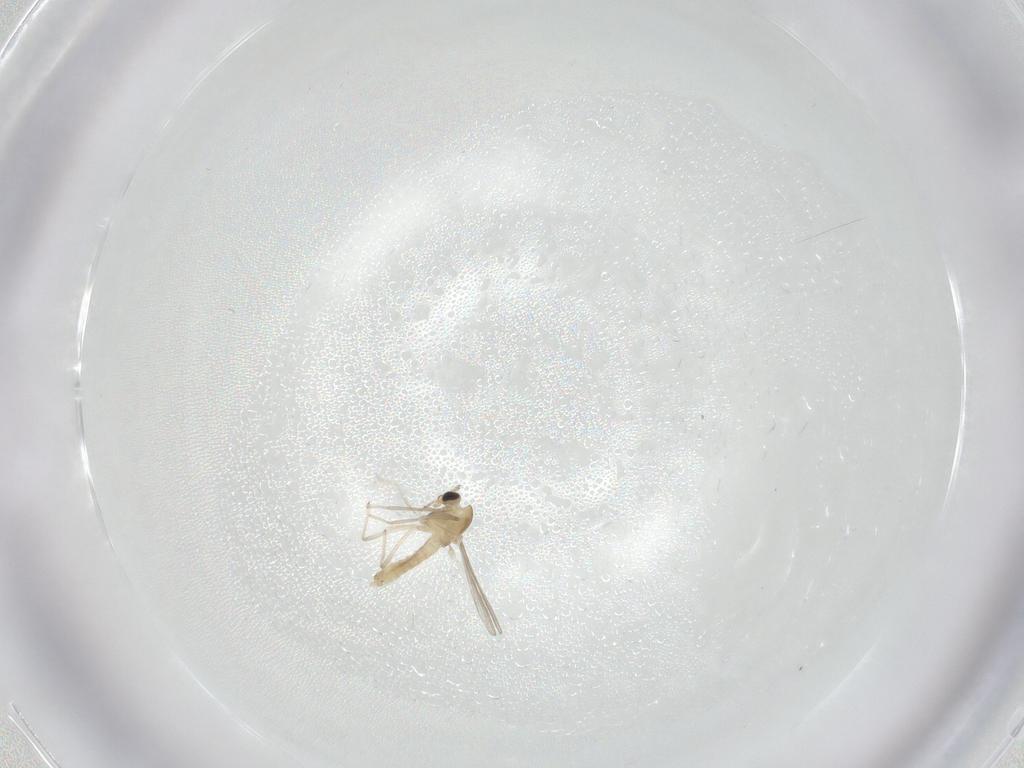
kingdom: Animalia
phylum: Arthropoda
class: Insecta
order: Diptera
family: Chironomidae
